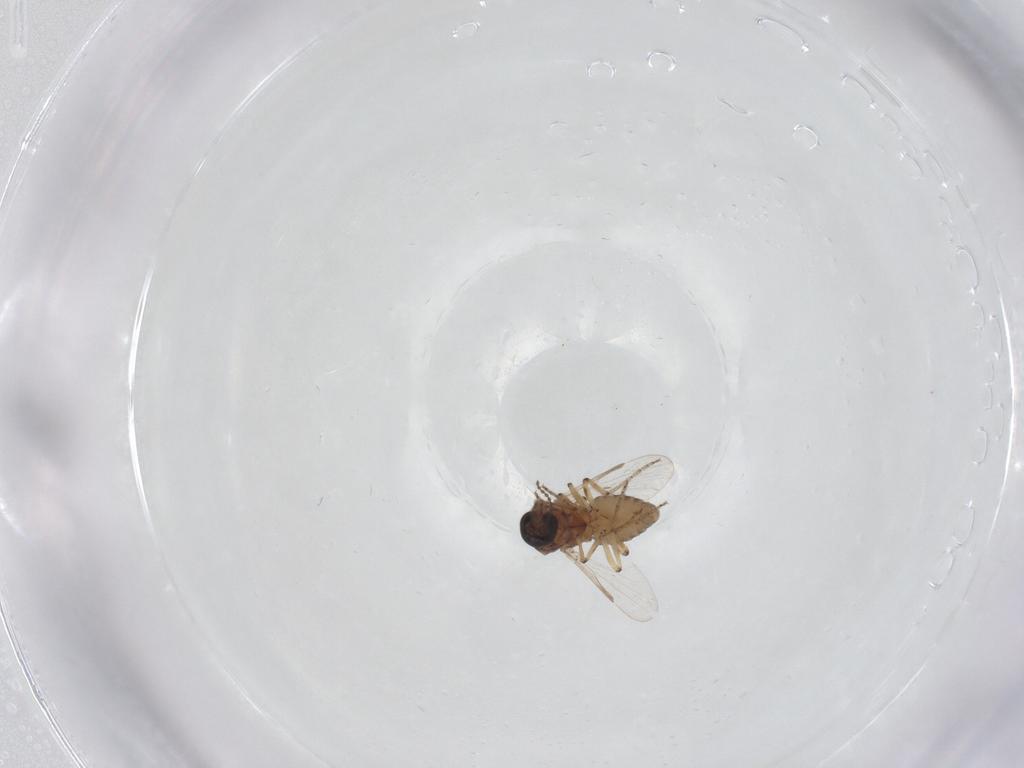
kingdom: Animalia
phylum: Arthropoda
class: Insecta
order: Diptera
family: Ceratopogonidae
